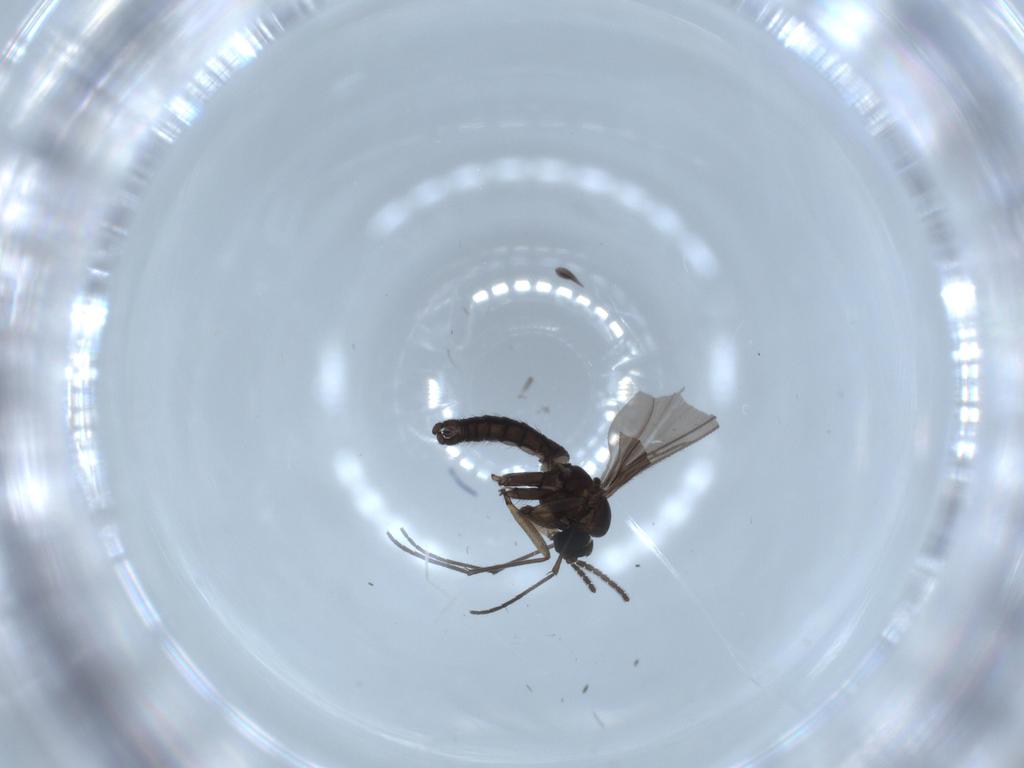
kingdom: Animalia
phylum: Arthropoda
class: Insecta
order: Diptera
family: Sciaridae
